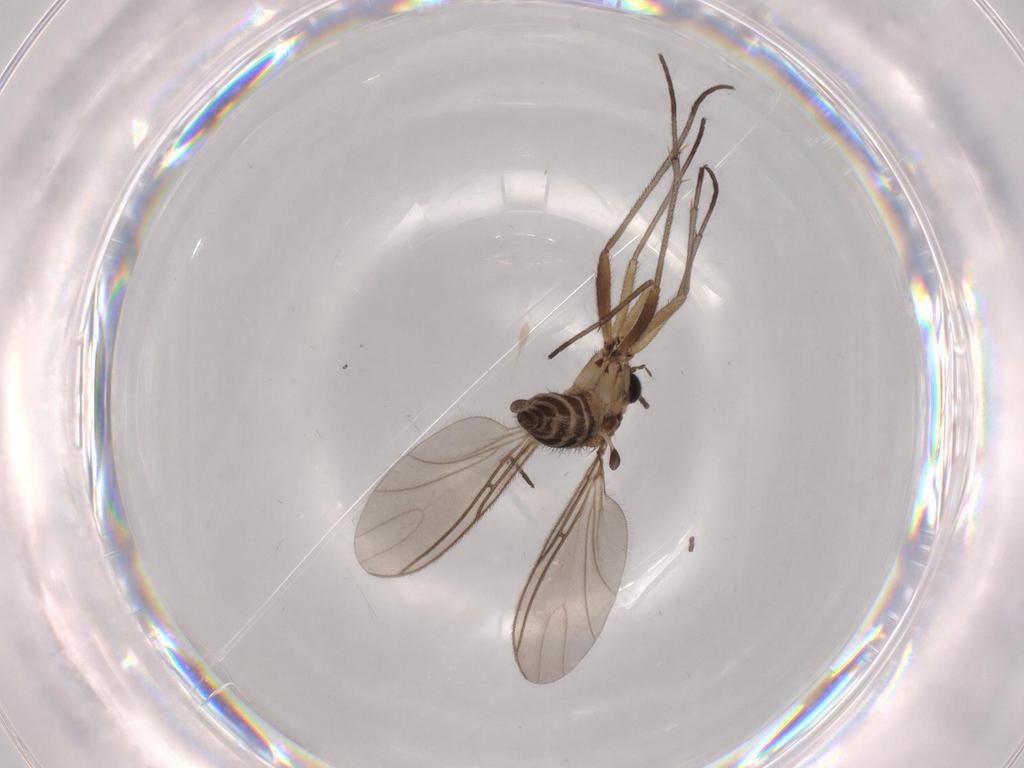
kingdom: Animalia
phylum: Arthropoda
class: Insecta
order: Diptera
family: Sciaridae
